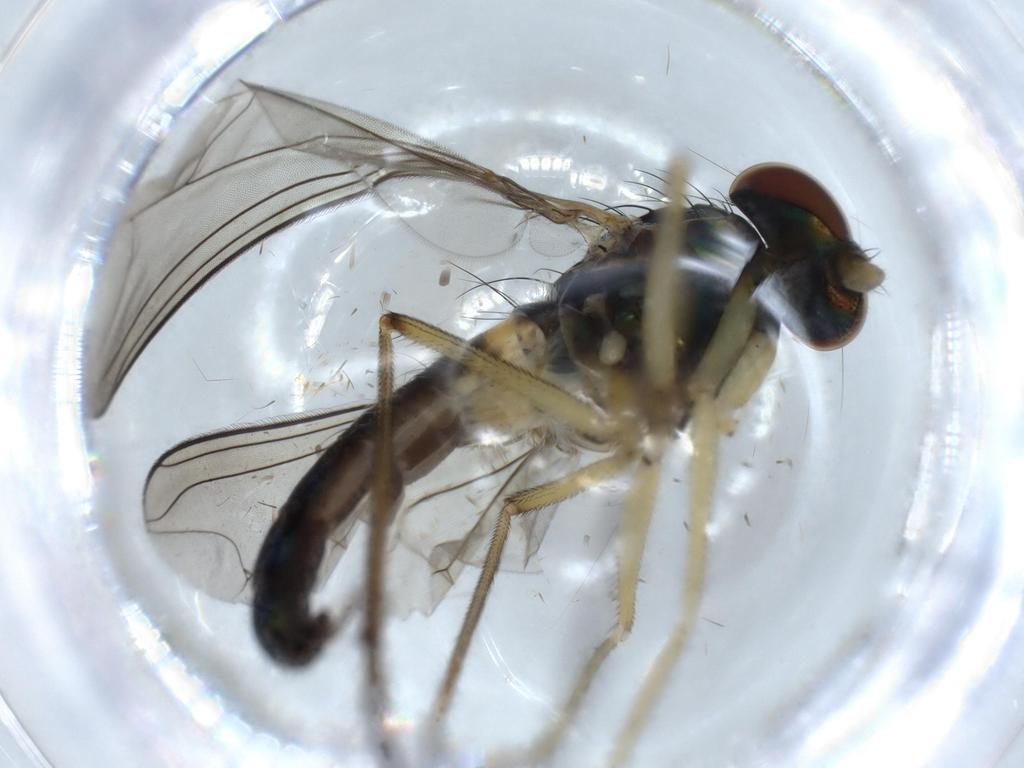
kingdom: Animalia
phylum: Arthropoda
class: Insecta
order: Diptera
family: Dolichopodidae
